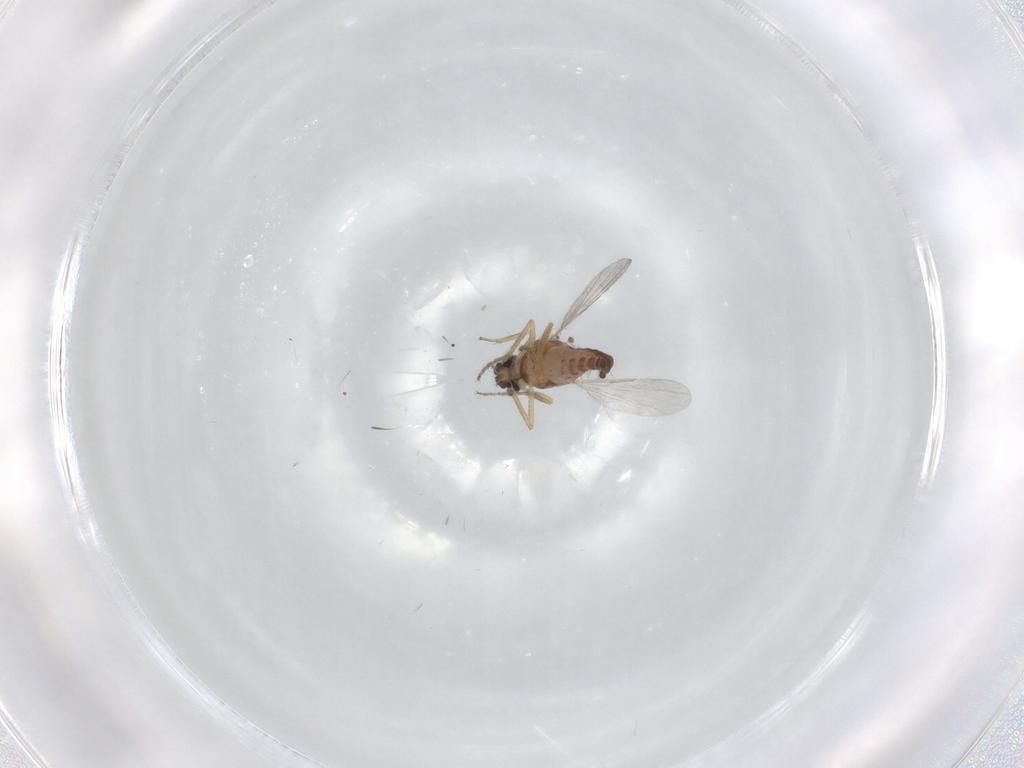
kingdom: Animalia
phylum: Arthropoda
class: Insecta
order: Diptera
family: Ceratopogonidae
